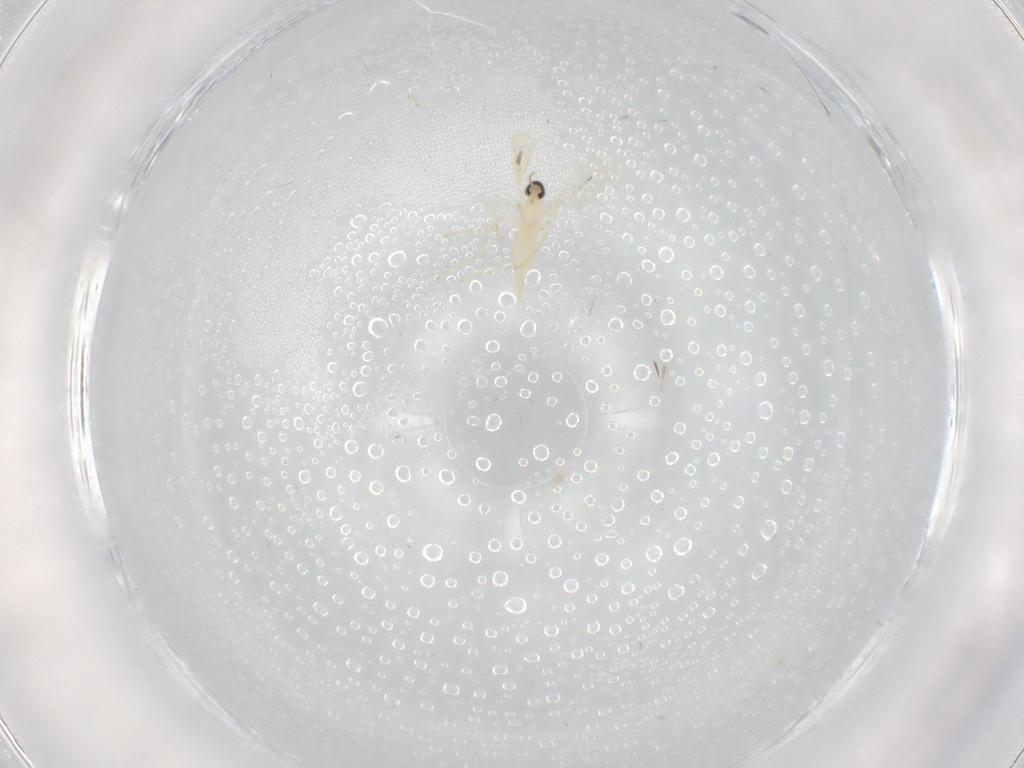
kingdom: Animalia
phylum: Arthropoda
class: Insecta
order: Diptera
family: Cecidomyiidae
